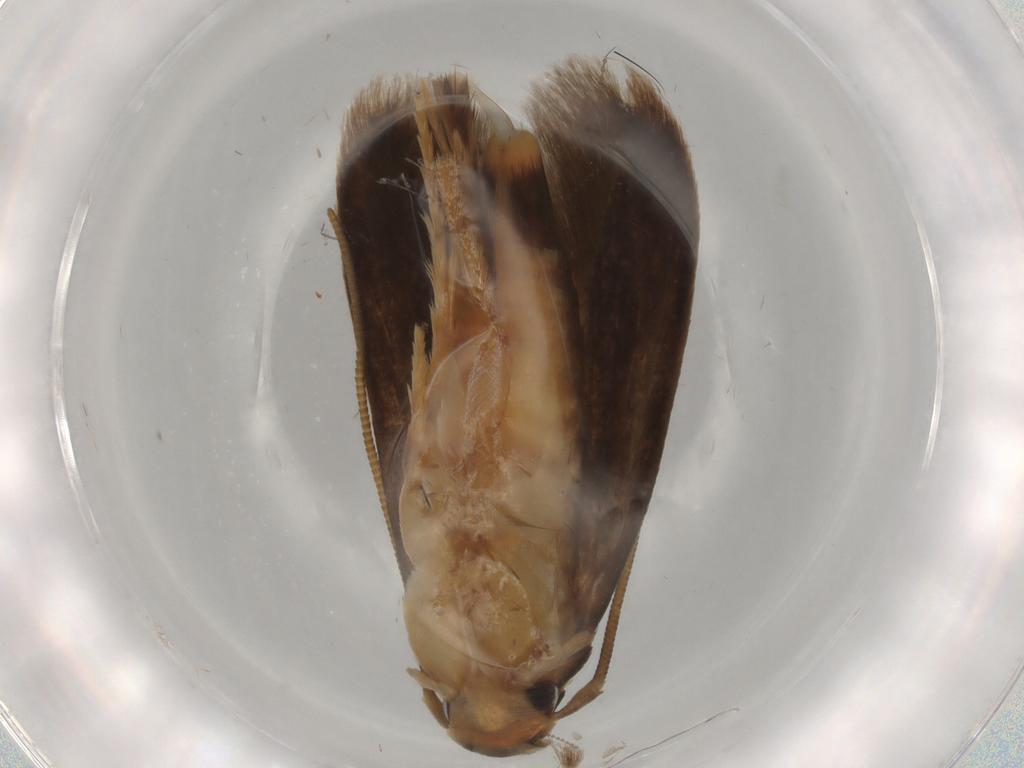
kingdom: Animalia
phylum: Arthropoda
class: Insecta
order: Lepidoptera
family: Tineidae
